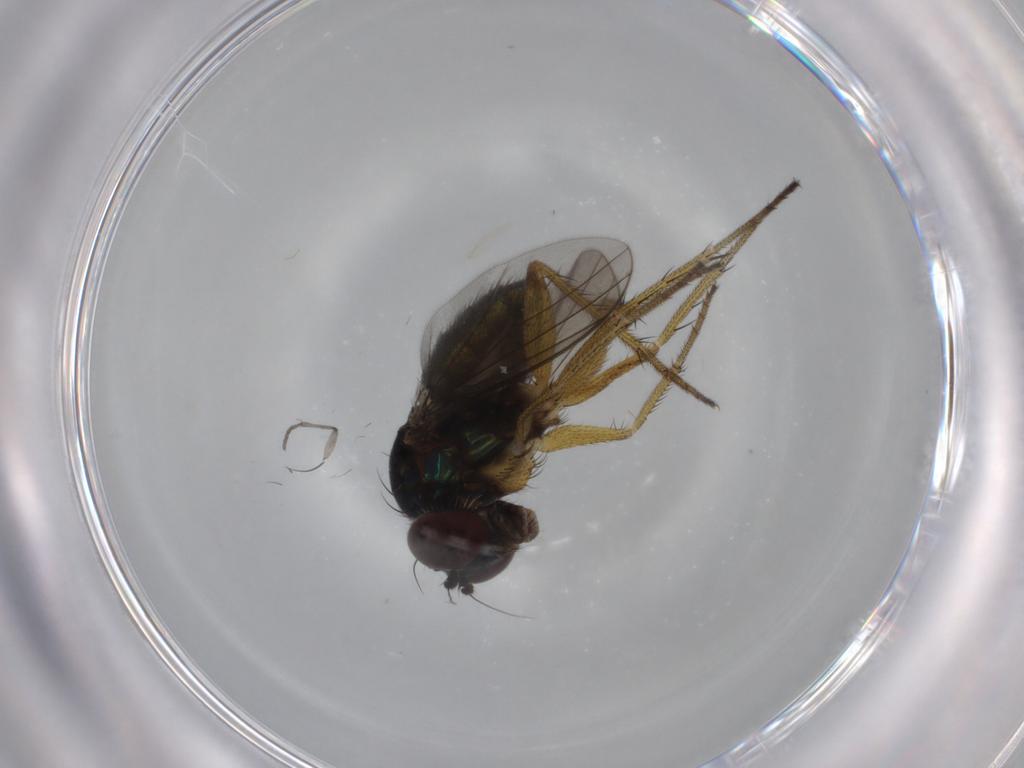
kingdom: Animalia
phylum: Arthropoda
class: Insecta
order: Diptera
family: Dolichopodidae
